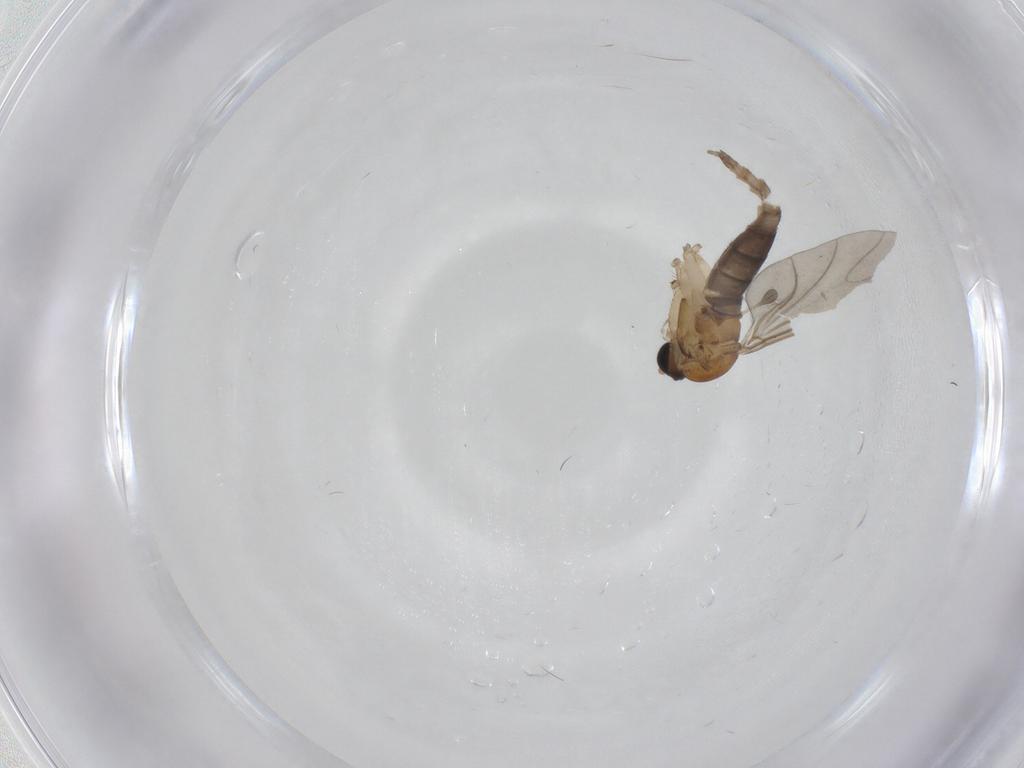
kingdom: Animalia
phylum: Arthropoda
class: Insecta
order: Diptera
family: Sciaridae
